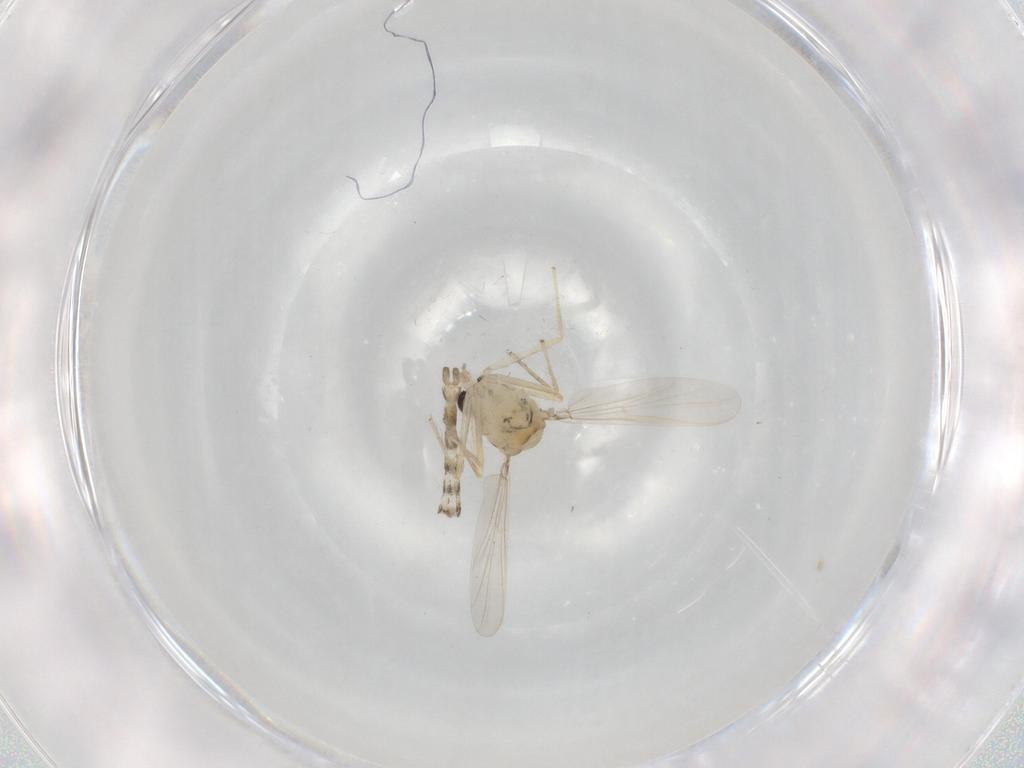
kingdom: Animalia
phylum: Arthropoda
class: Insecta
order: Diptera
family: Chironomidae
